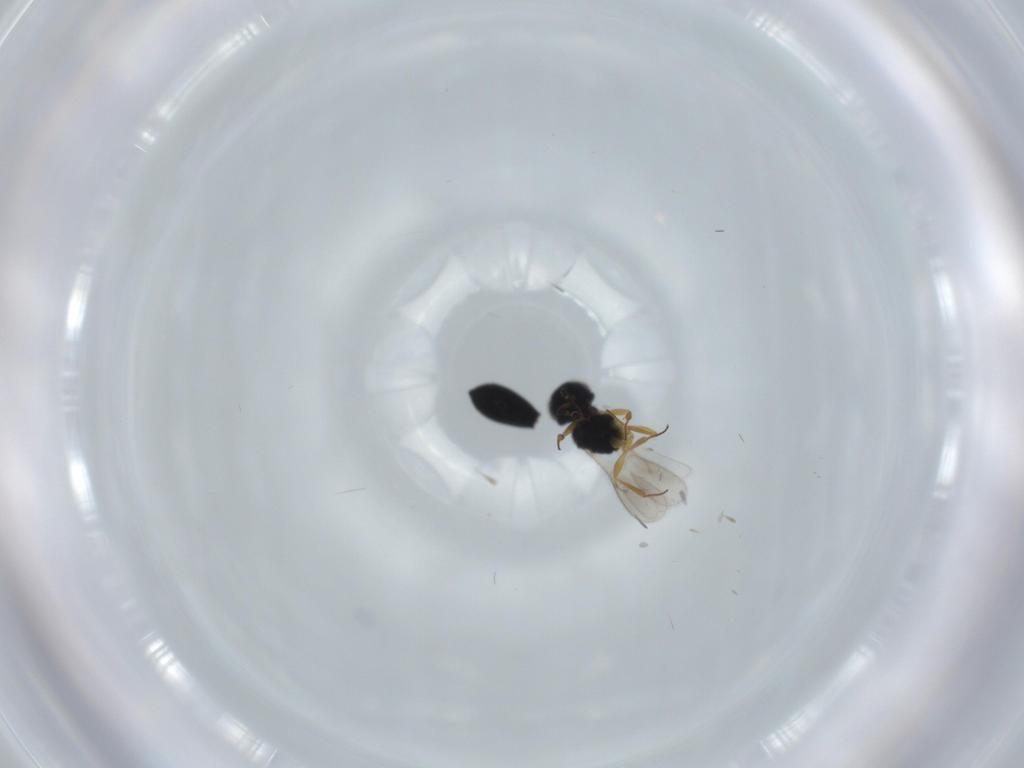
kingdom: Animalia
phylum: Arthropoda
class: Insecta
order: Hymenoptera
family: Scelionidae
